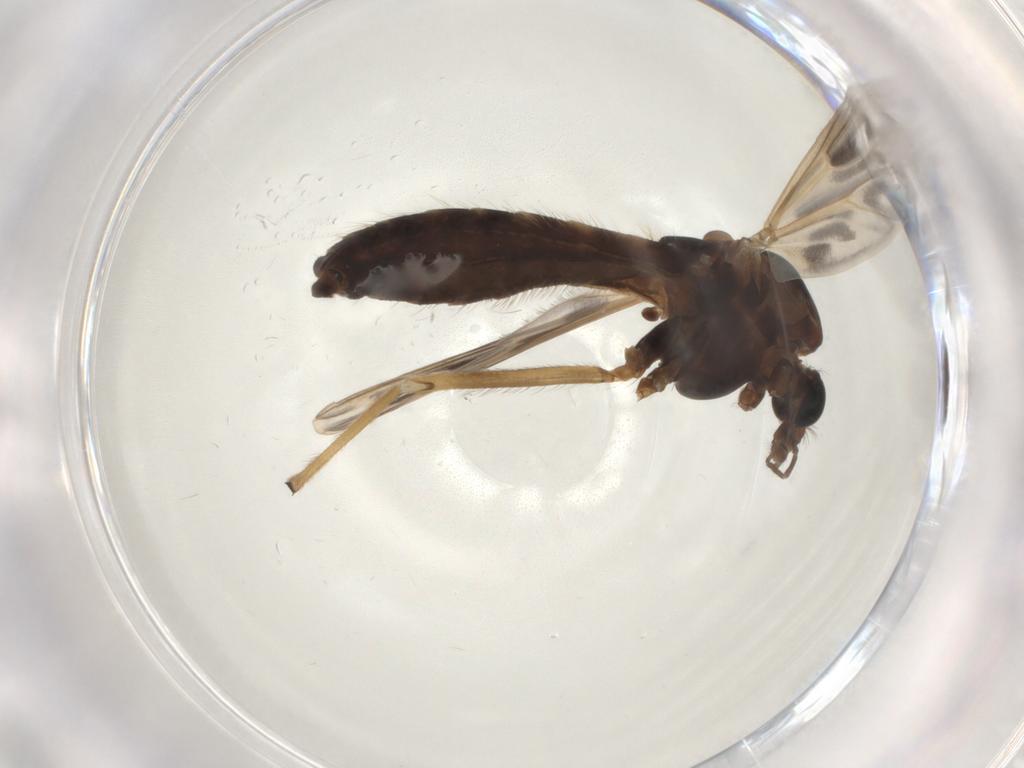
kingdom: Animalia
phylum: Arthropoda
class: Insecta
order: Diptera
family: Chironomidae
